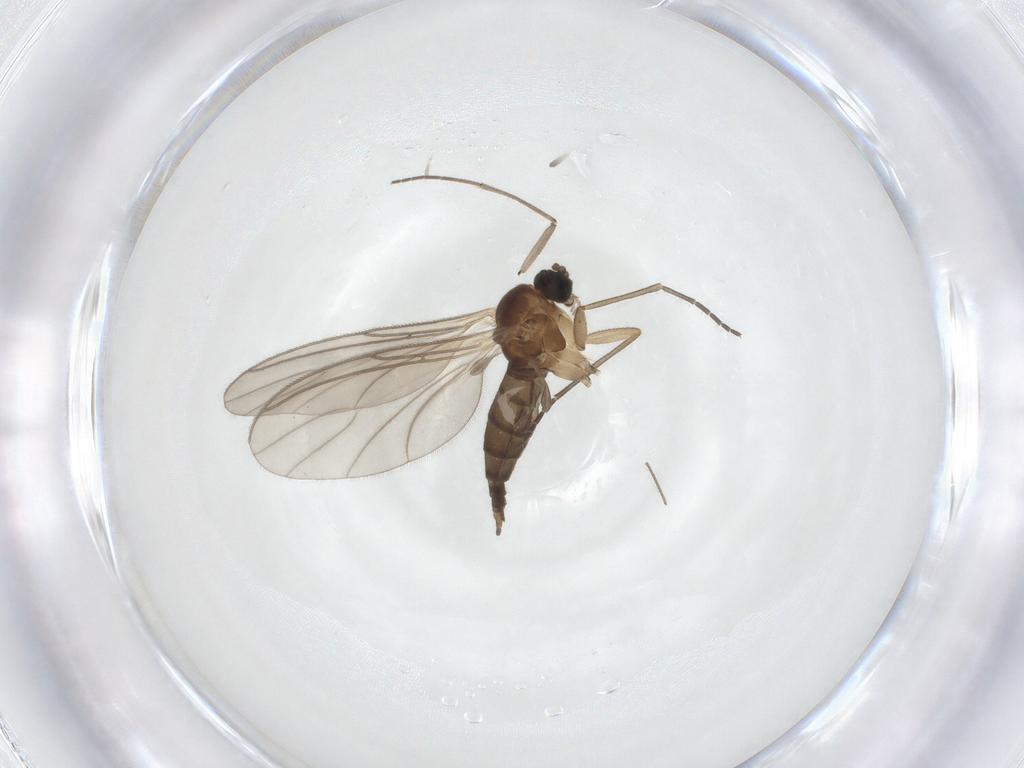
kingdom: Animalia
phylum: Arthropoda
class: Insecta
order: Diptera
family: Sciaridae
